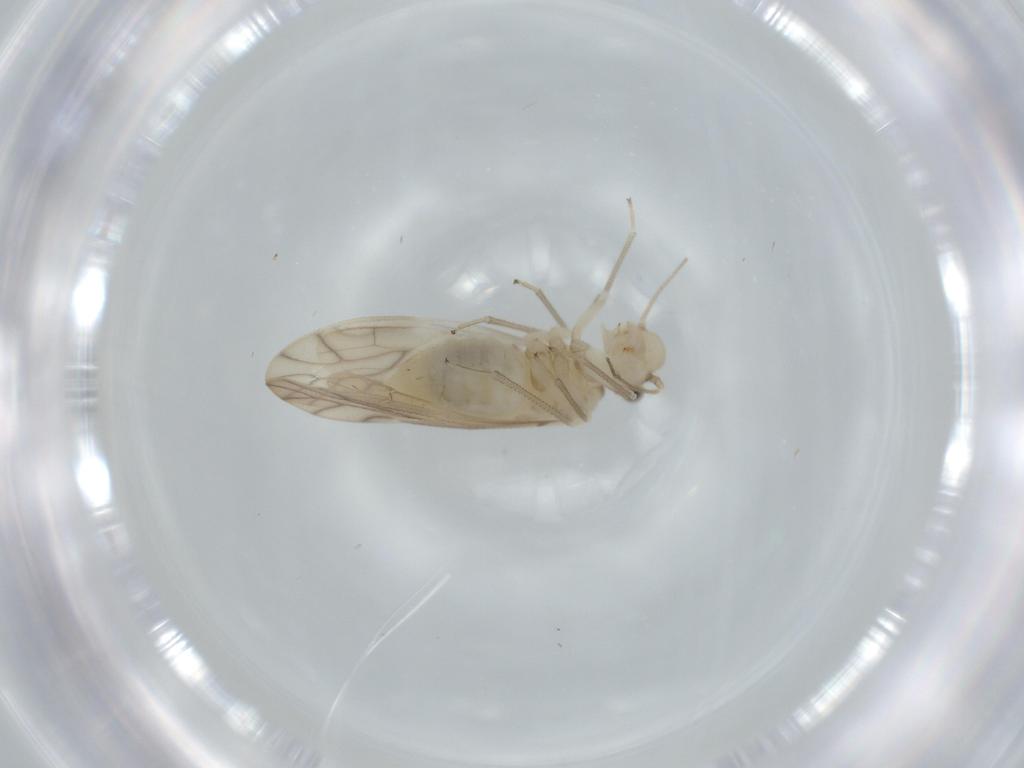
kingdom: Animalia
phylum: Arthropoda
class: Insecta
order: Psocodea
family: Caeciliusidae
